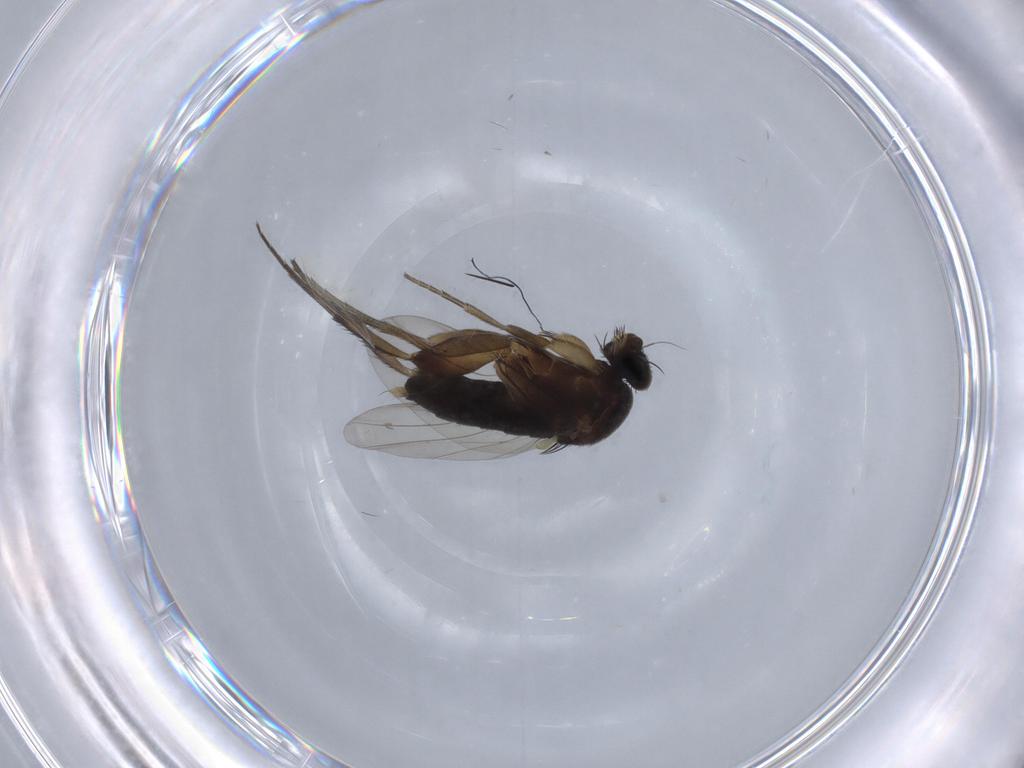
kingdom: Animalia
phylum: Arthropoda
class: Insecta
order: Diptera
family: Phoridae
